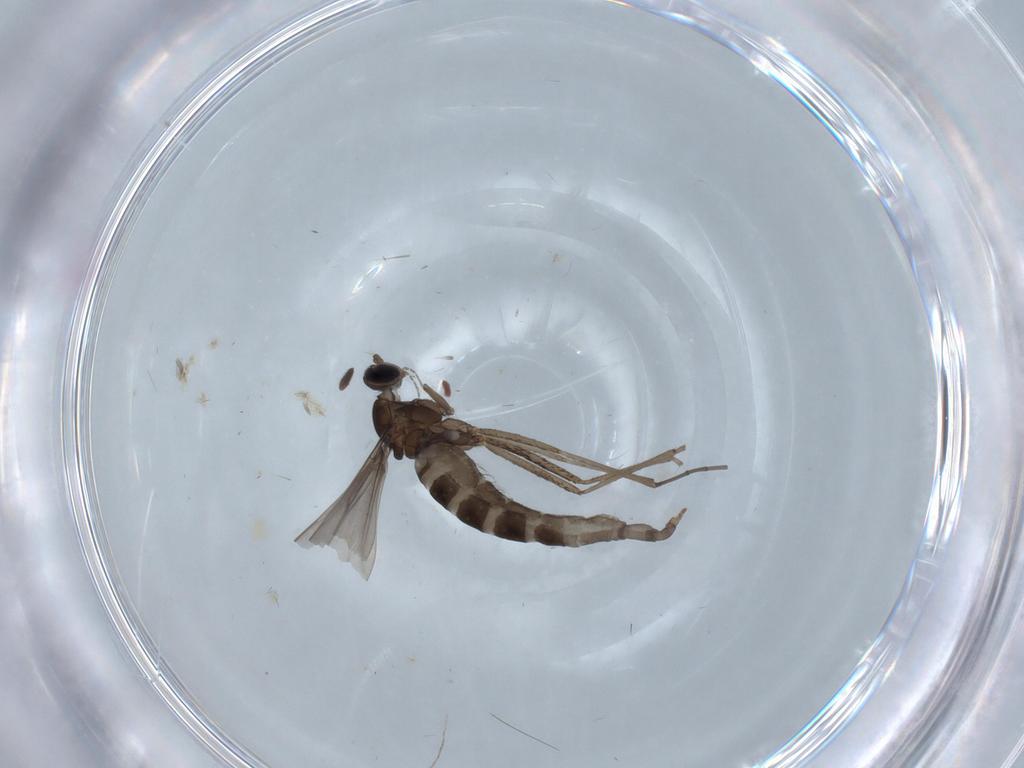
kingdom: Animalia
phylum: Arthropoda
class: Insecta
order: Diptera
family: Cecidomyiidae
